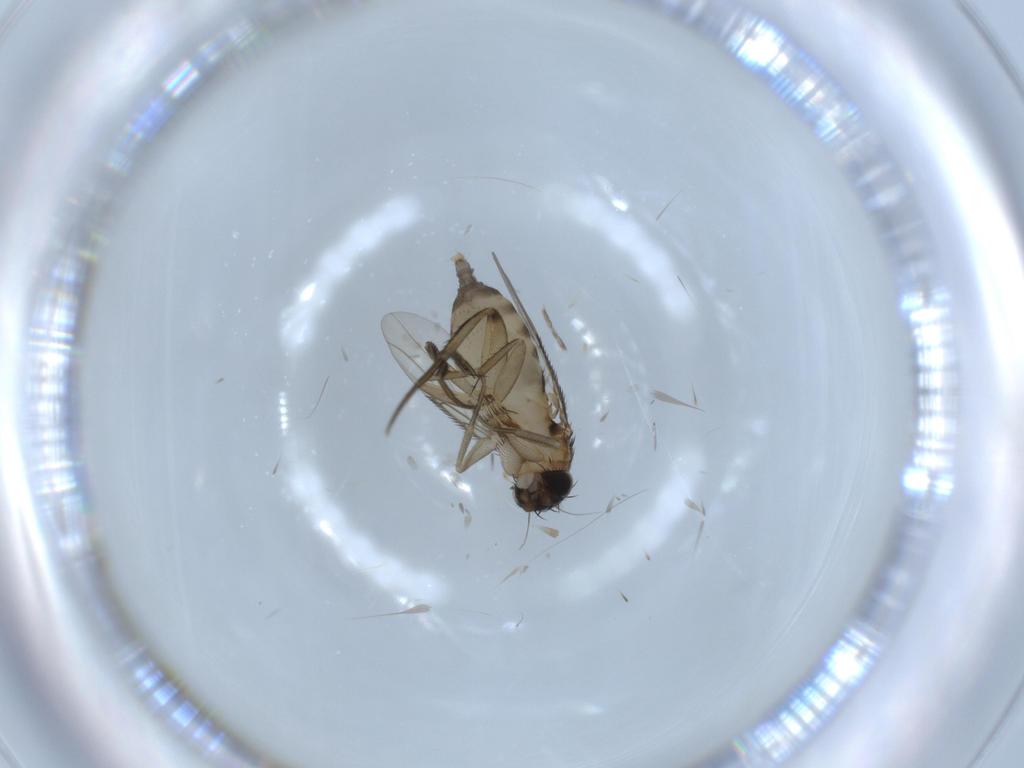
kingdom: Animalia
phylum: Arthropoda
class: Insecta
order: Diptera
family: Phoridae
